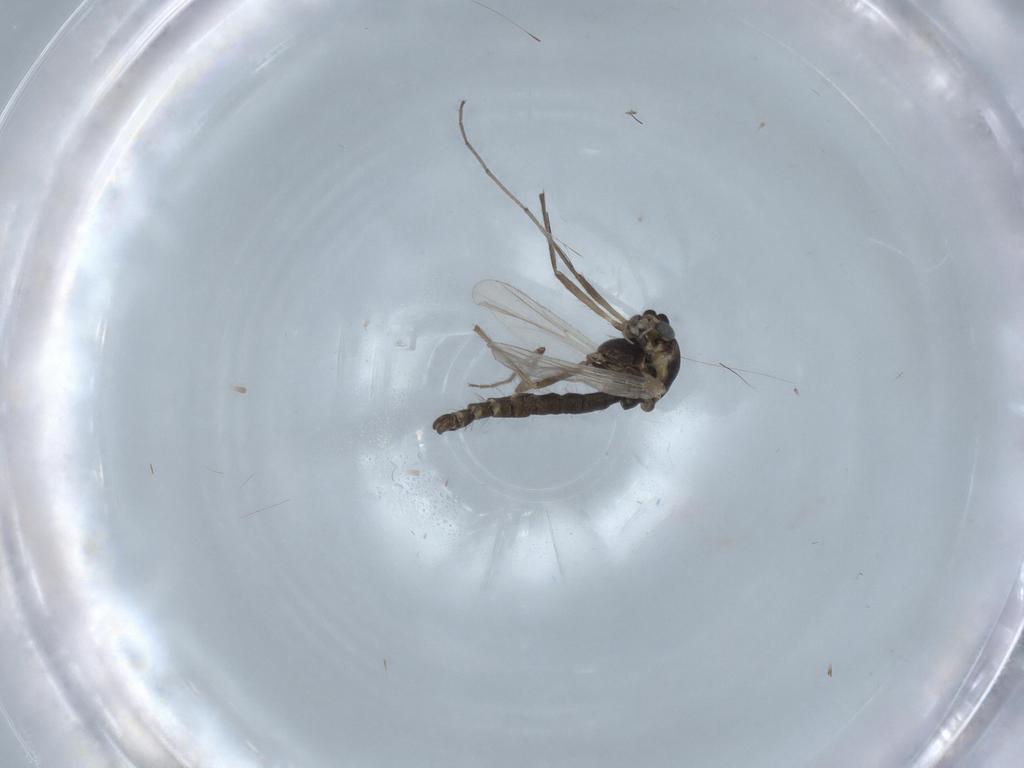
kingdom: Animalia
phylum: Arthropoda
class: Insecta
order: Diptera
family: Chironomidae
